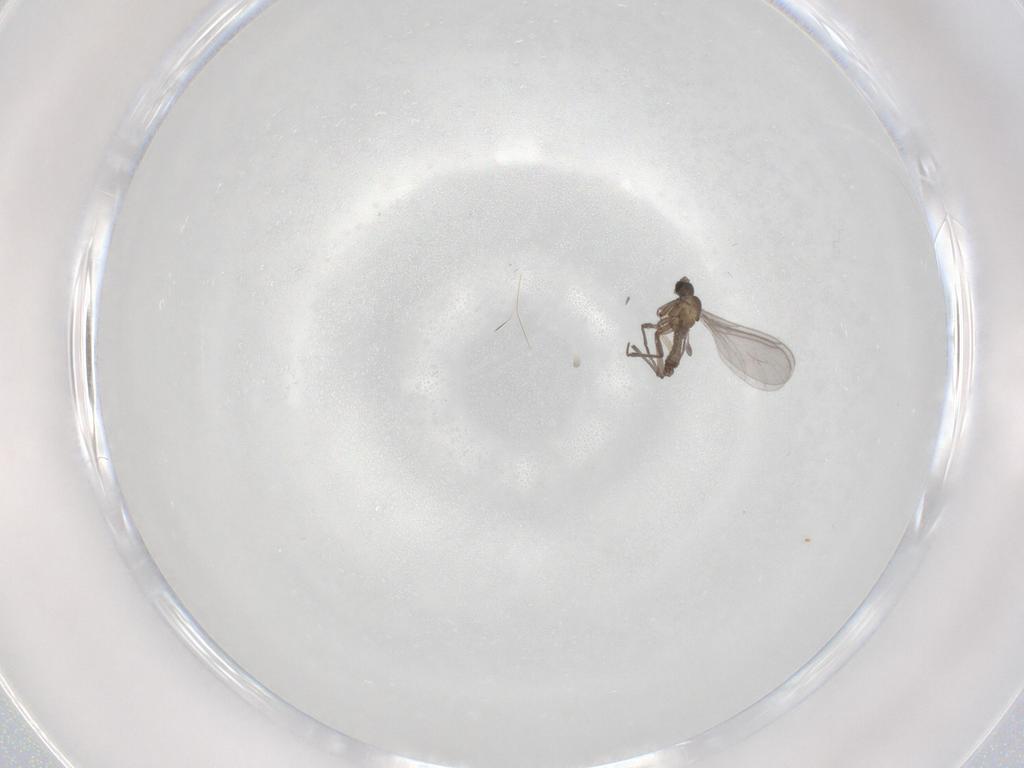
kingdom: Animalia
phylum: Arthropoda
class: Insecta
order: Diptera
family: Sciaridae
